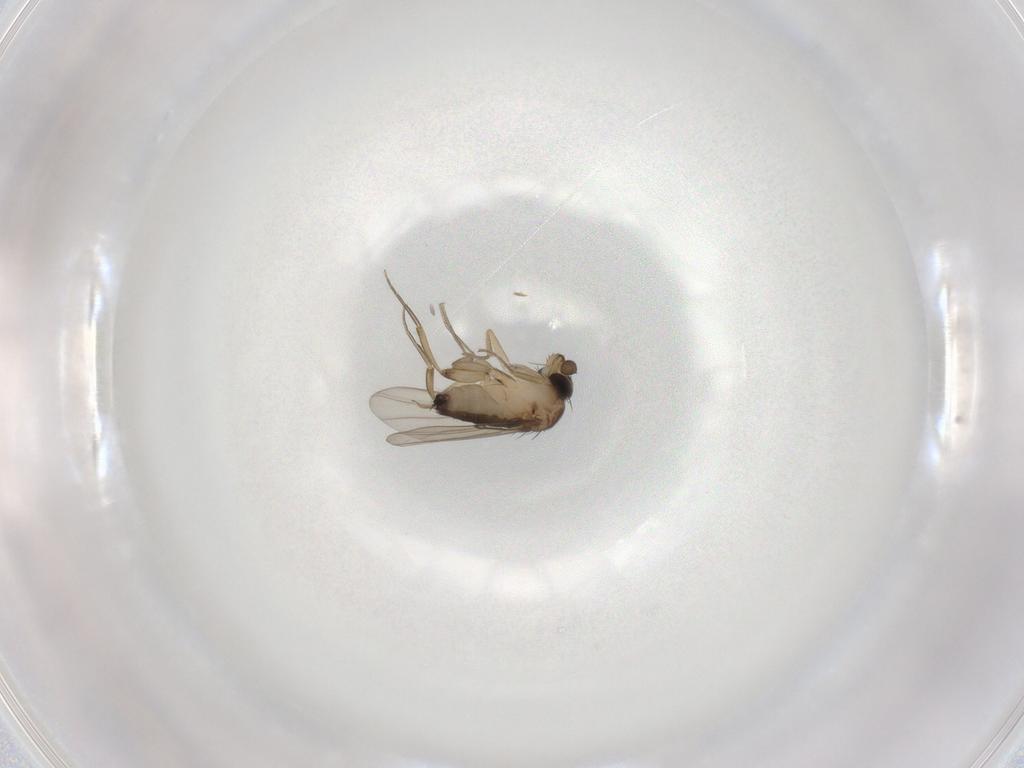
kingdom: Animalia
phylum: Arthropoda
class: Insecta
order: Diptera
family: Phoridae
